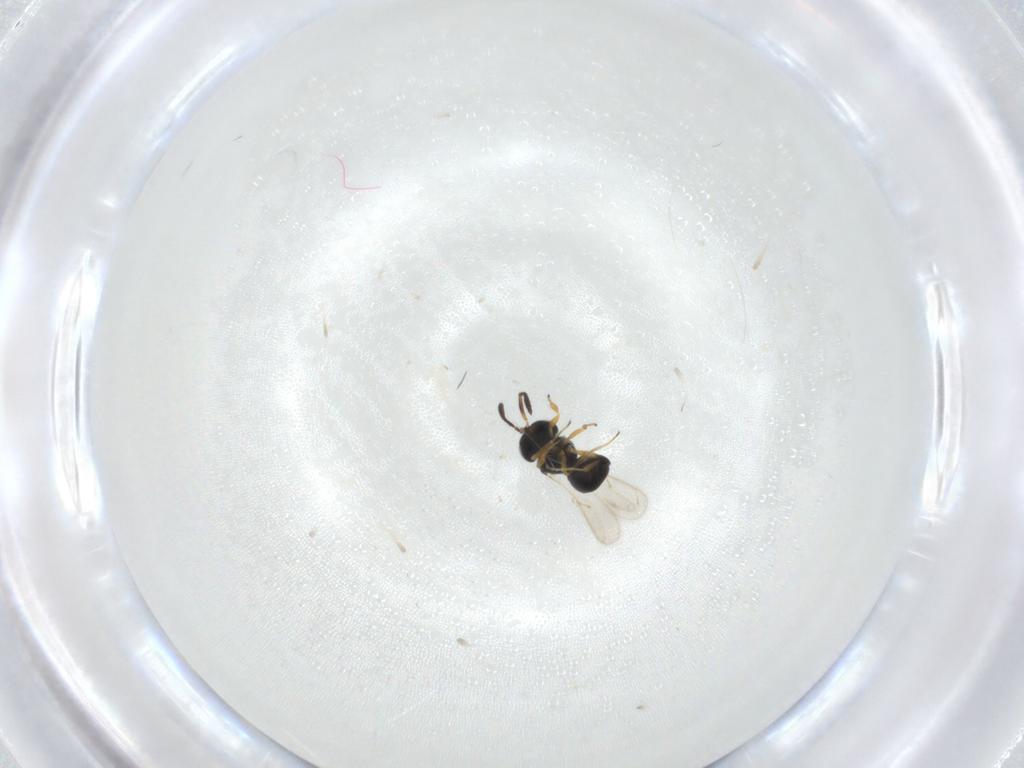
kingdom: Animalia
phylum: Arthropoda
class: Insecta
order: Hymenoptera
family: Scelionidae
